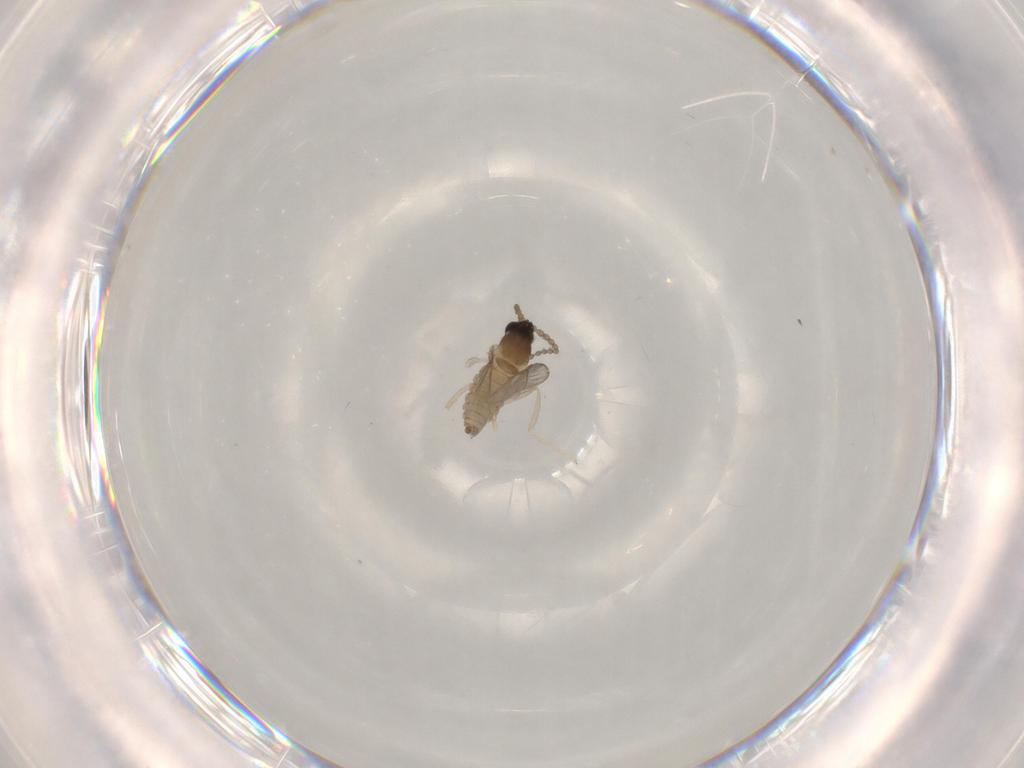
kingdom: Animalia
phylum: Arthropoda
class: Insecta
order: Diptera
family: Cecidomyiidae
